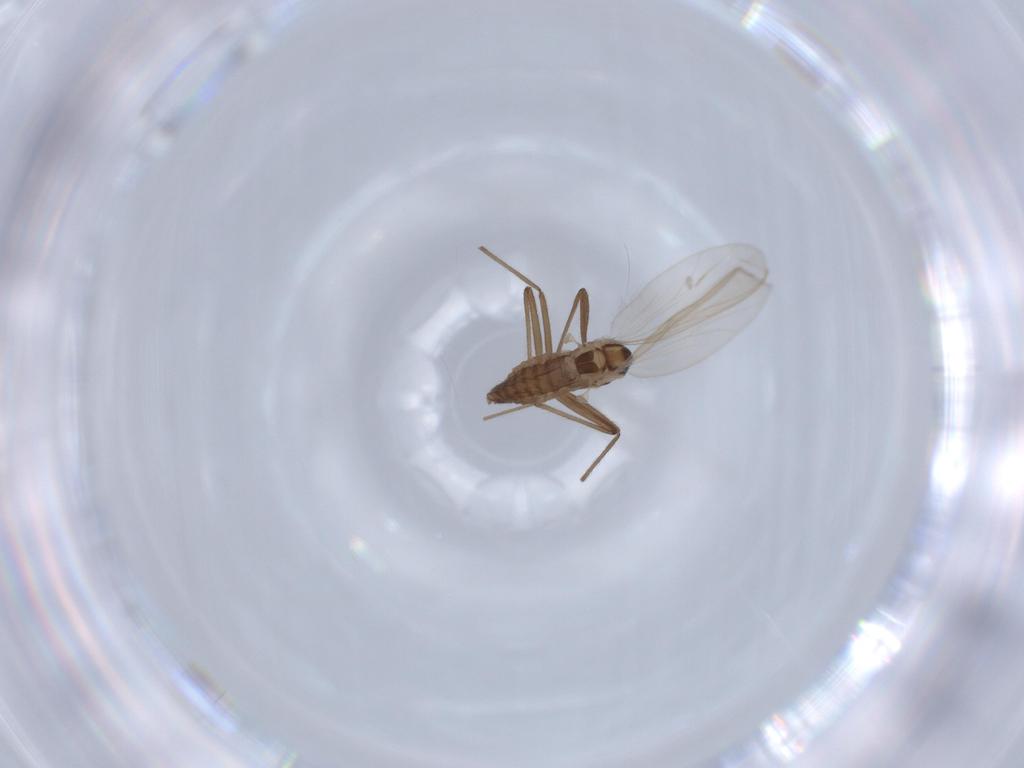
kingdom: Animalia
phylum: Arthropoda
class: Insecta
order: Diptera
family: Chironomidae
